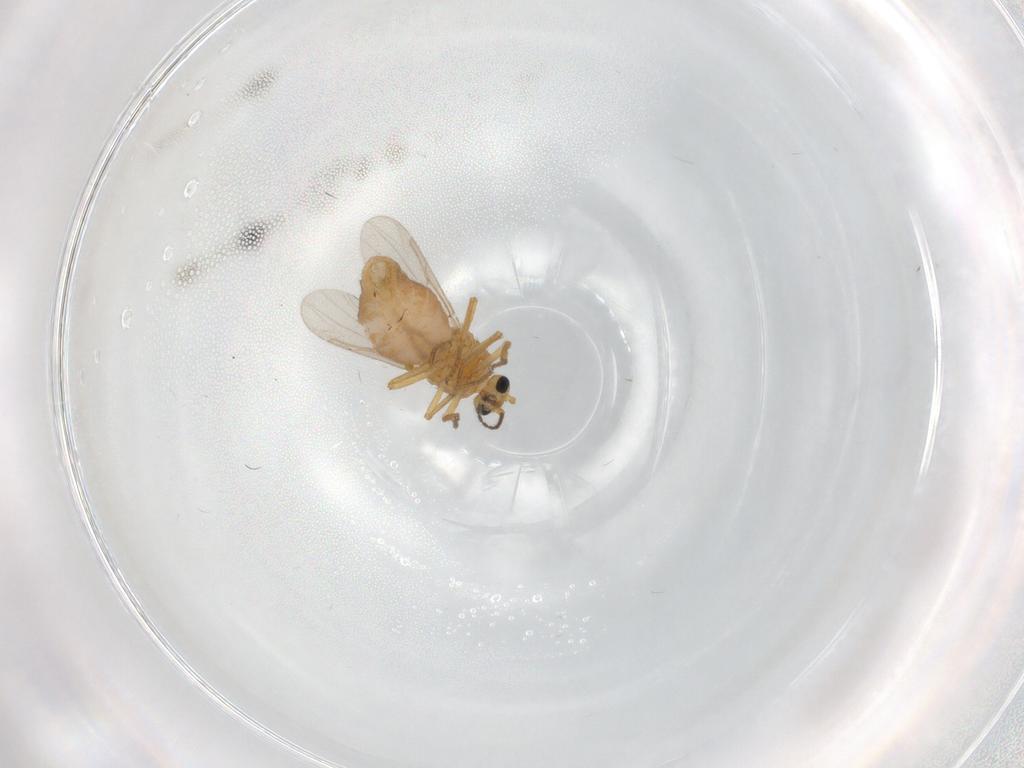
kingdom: Animalia
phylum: Arthropoda
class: Insecta
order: Diptera
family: Ceratopogonidae
